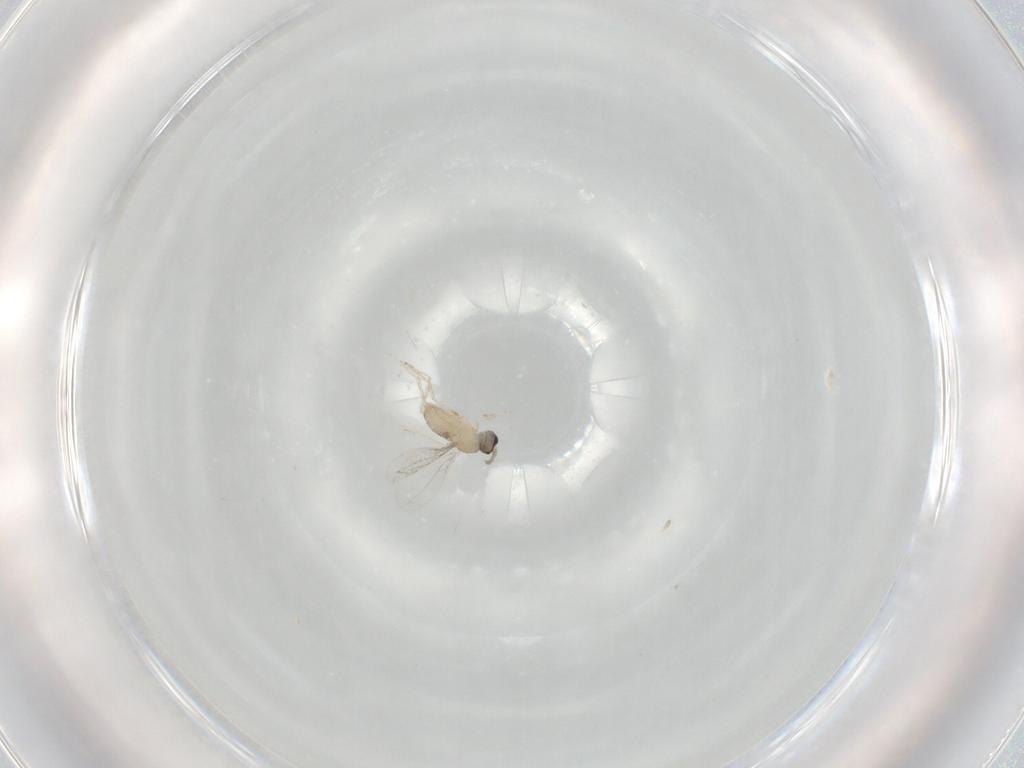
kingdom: Animalia
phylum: Arthropoda
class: Insecta
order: Diptera
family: Cecidomyiidae
